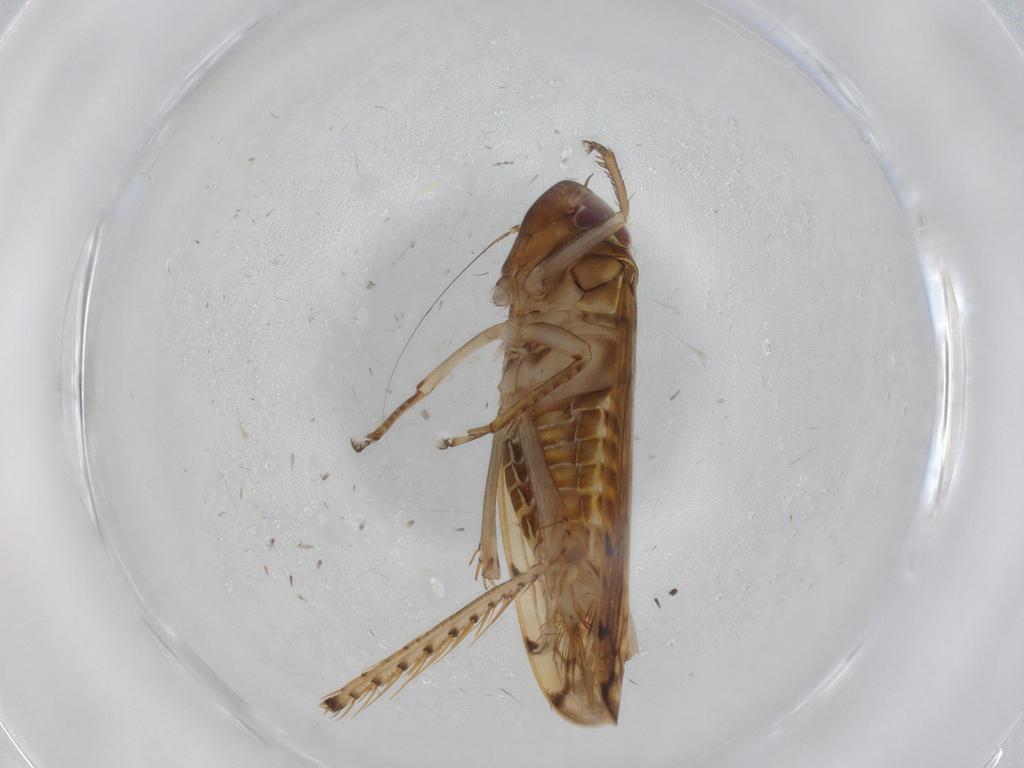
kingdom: Animalia
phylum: Arthropoda
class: Insecta
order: Hemiptera
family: Cicadellidae
